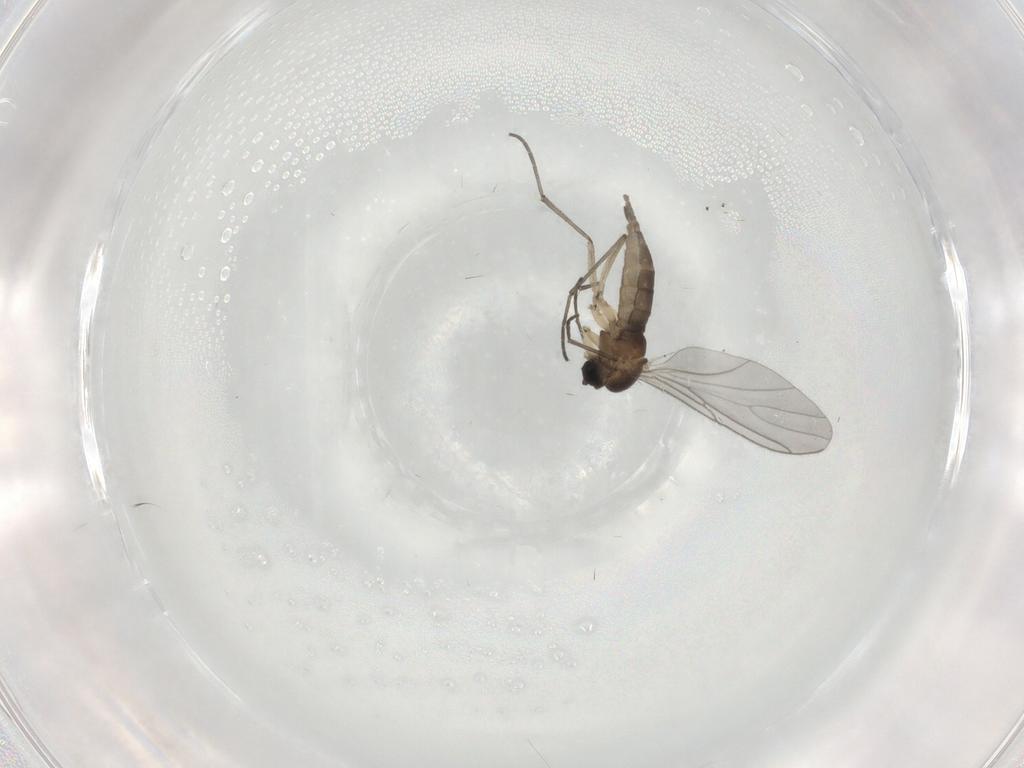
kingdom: Animalia
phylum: Arthropoda
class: Insecta
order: Diptera
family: Sciaridae
